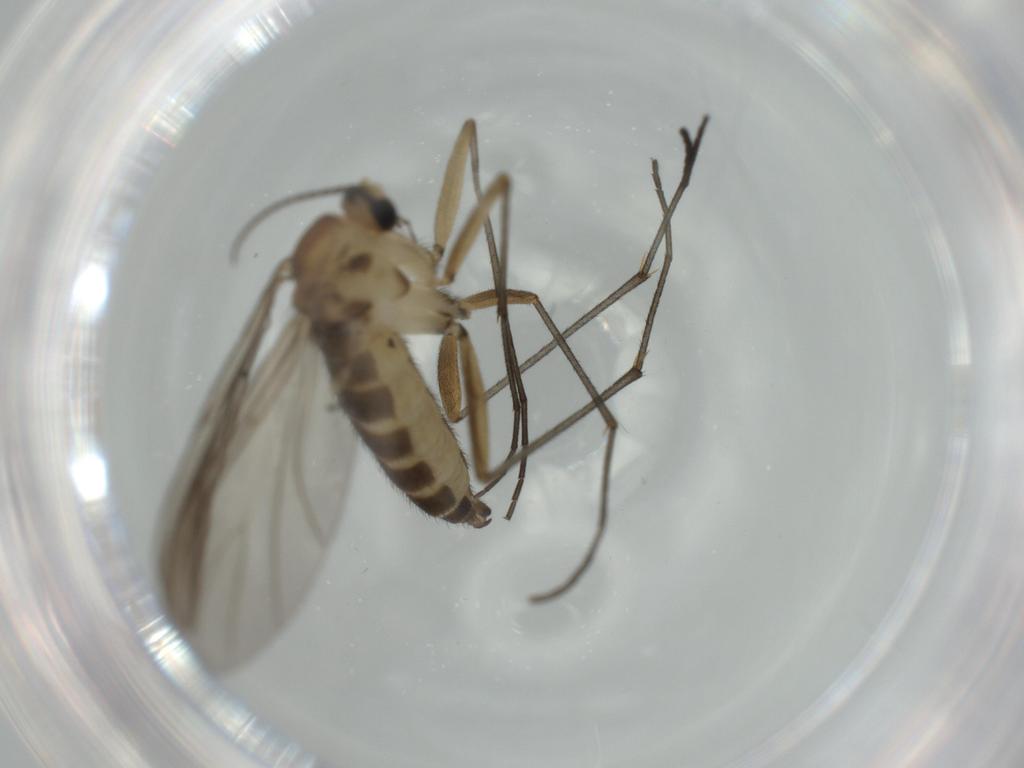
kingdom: Animalia
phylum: Arthropoda
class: Insecta
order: Diptera
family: Sciaridae
